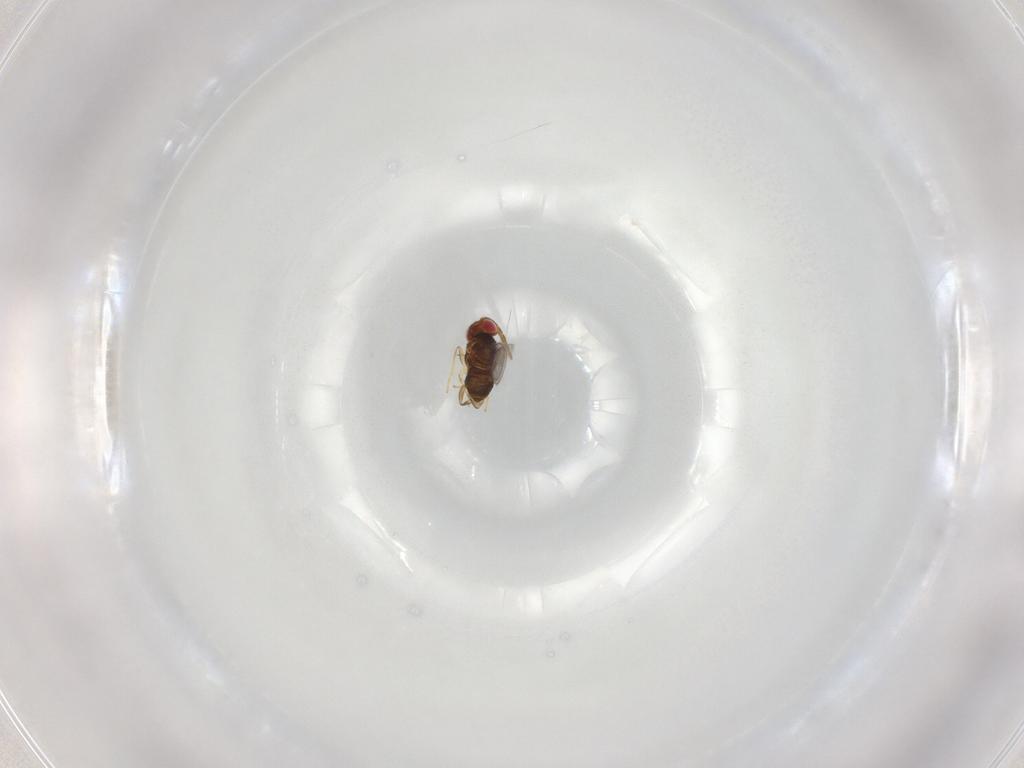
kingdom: Animalia
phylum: Arthropoda
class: Insecta
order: Hymenoptera
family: Aphelinidae
